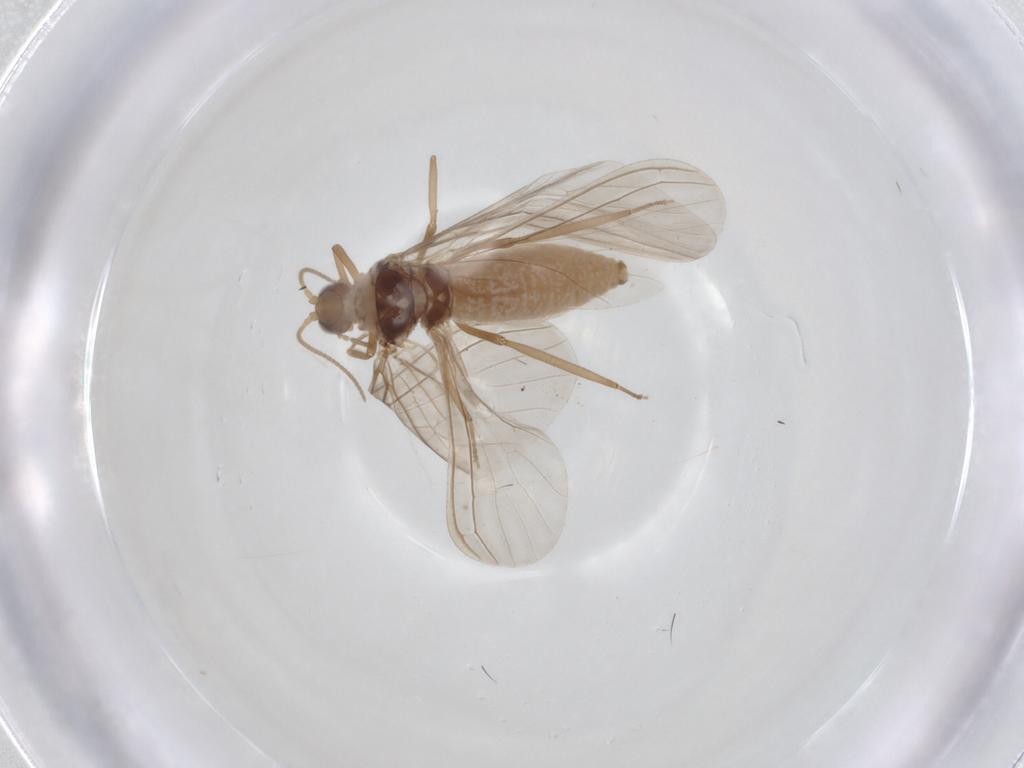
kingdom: Animalia
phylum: Arthropoda
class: Insecta
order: Neuroptera
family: Coniopterygidae
